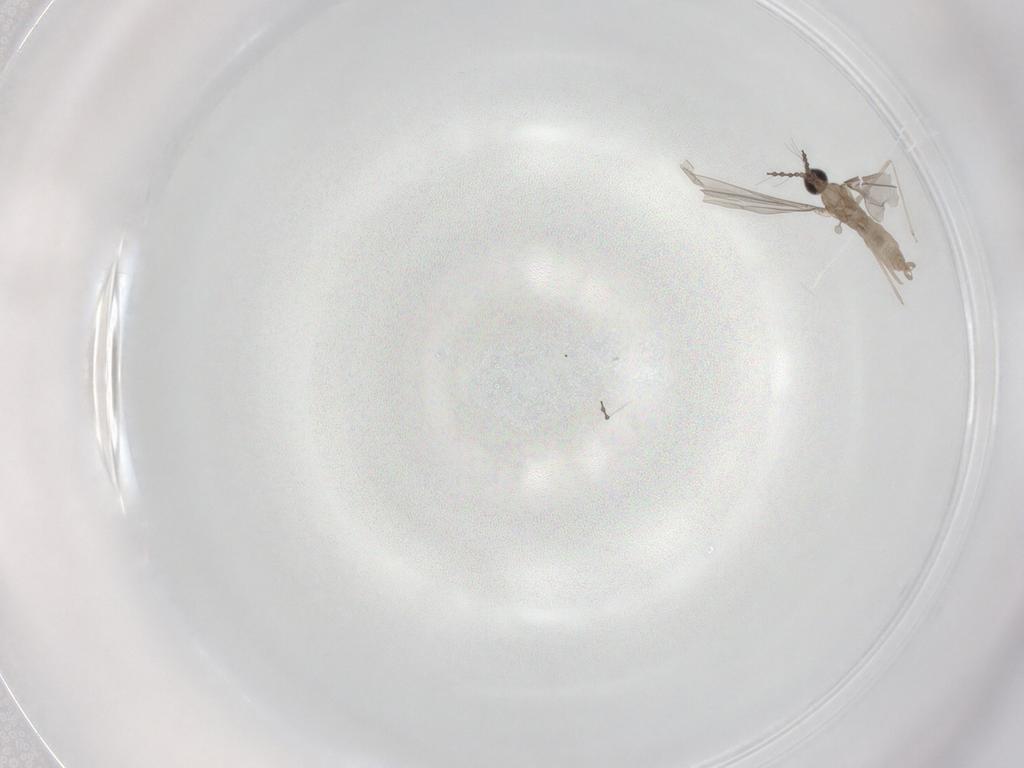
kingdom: Animalia
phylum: Arthropoda
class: Insecta
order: Diptera
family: Cecidomyiidae
